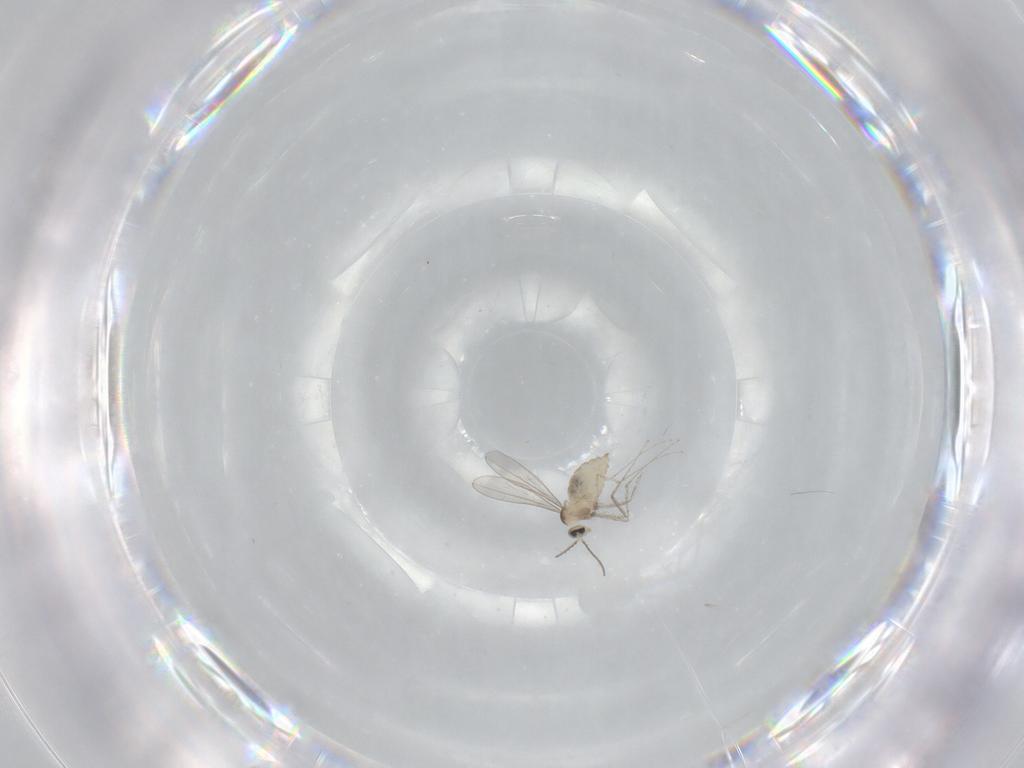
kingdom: Animalia
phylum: Arthropoda
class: Insecta
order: Diptera
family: Cecidomyiidae
